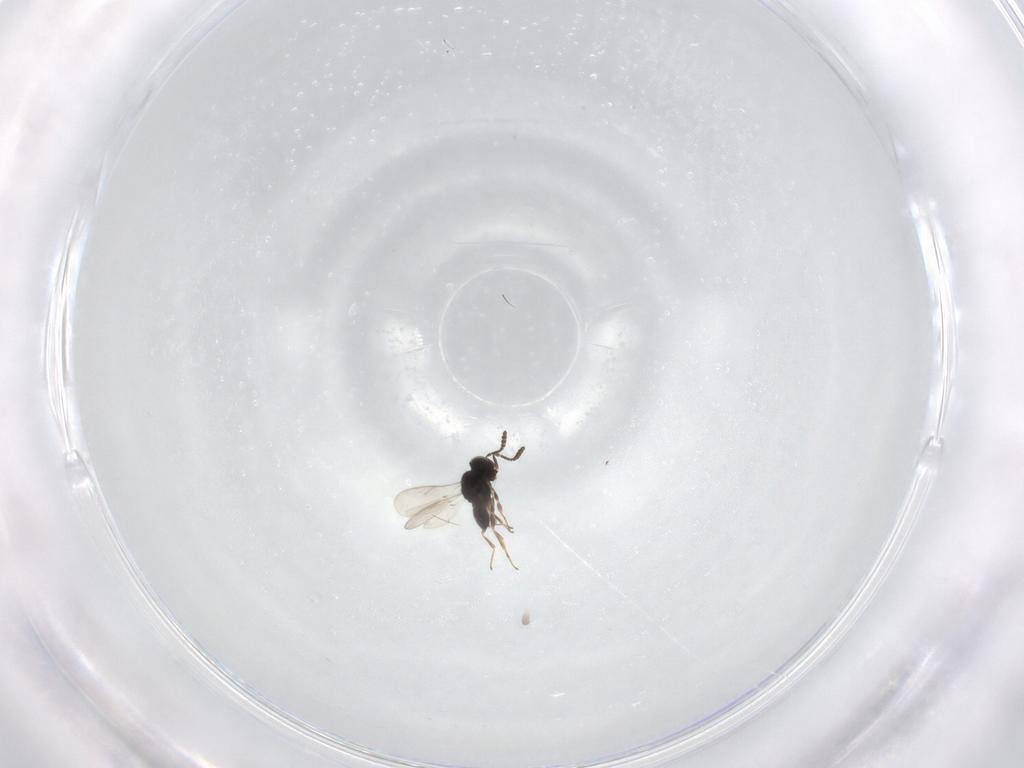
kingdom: Animalia
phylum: Arthropoda
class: Insecta
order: Hymenoptera
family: Scelionidae
